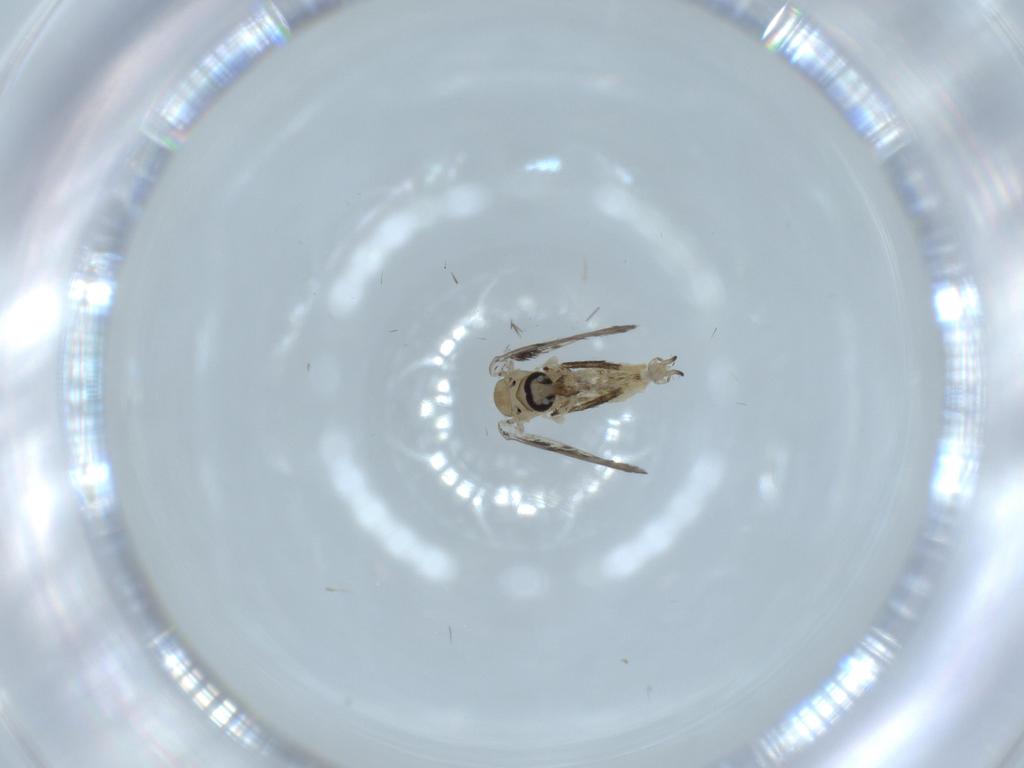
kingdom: Animalia
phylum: Arthropoda
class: Insecta
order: Diptera
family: Psychodidae
